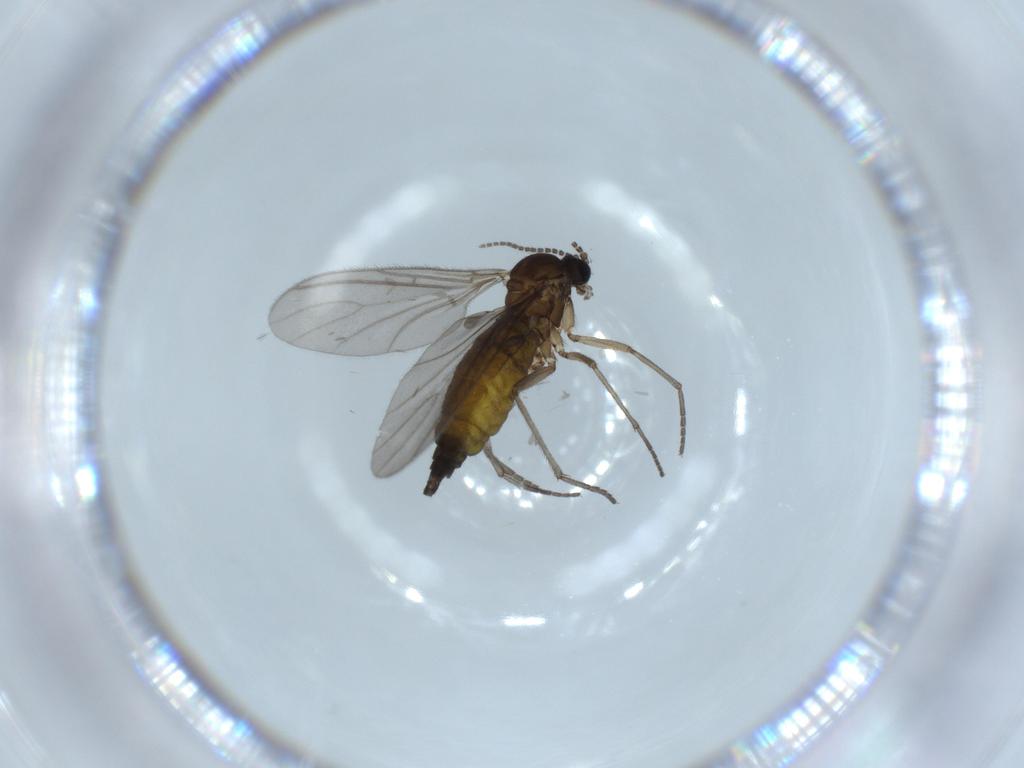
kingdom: Animalia
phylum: Arthropoda
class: Insecta
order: Diptera
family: Sciaridae
